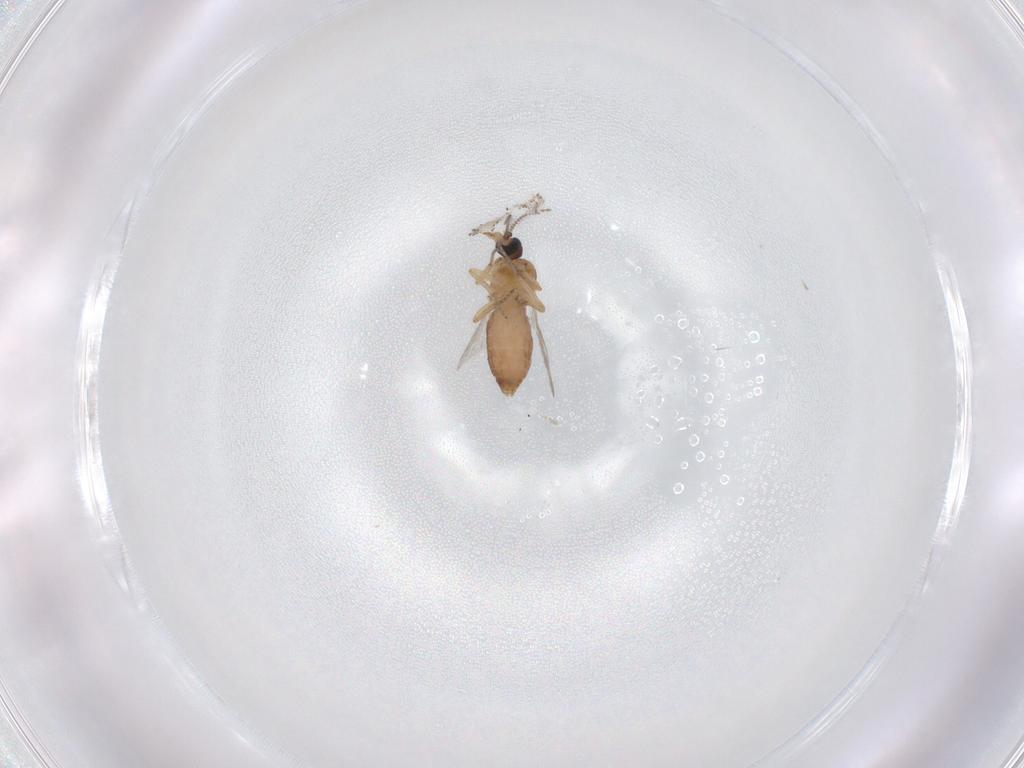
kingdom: Animalia
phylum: Arthropoda
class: Insecta
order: Diptera
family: Ceratopogonidae
